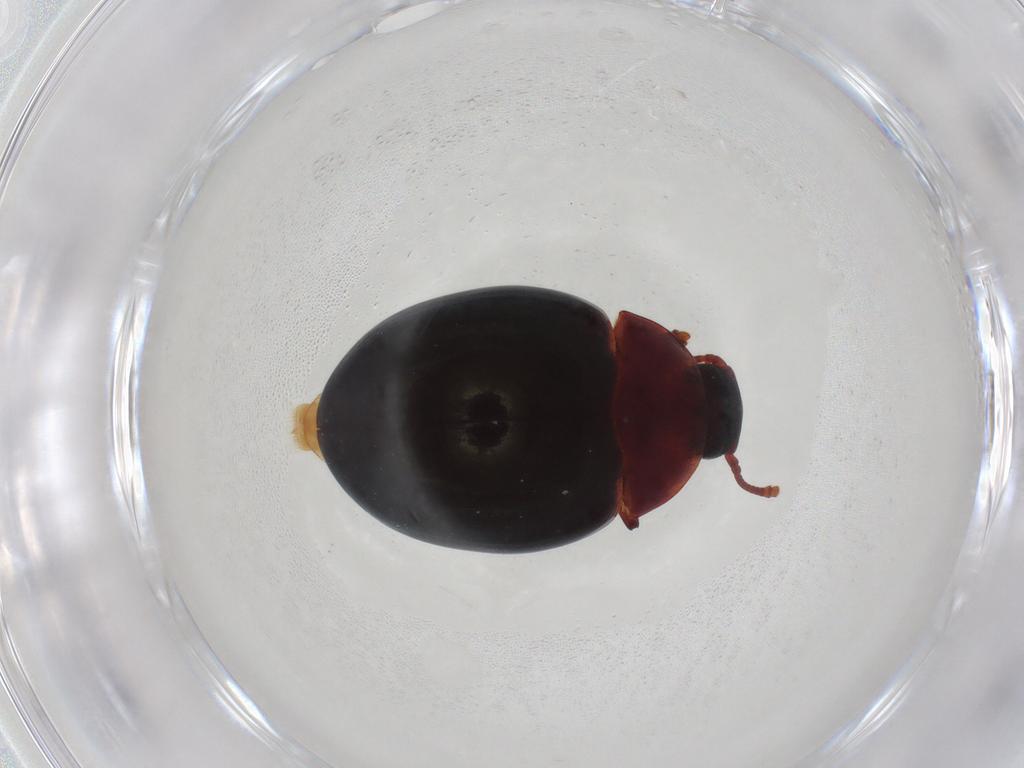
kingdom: Animalia
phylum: Arthropoda
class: Insecta
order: Coleoptera
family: Zopheridae
